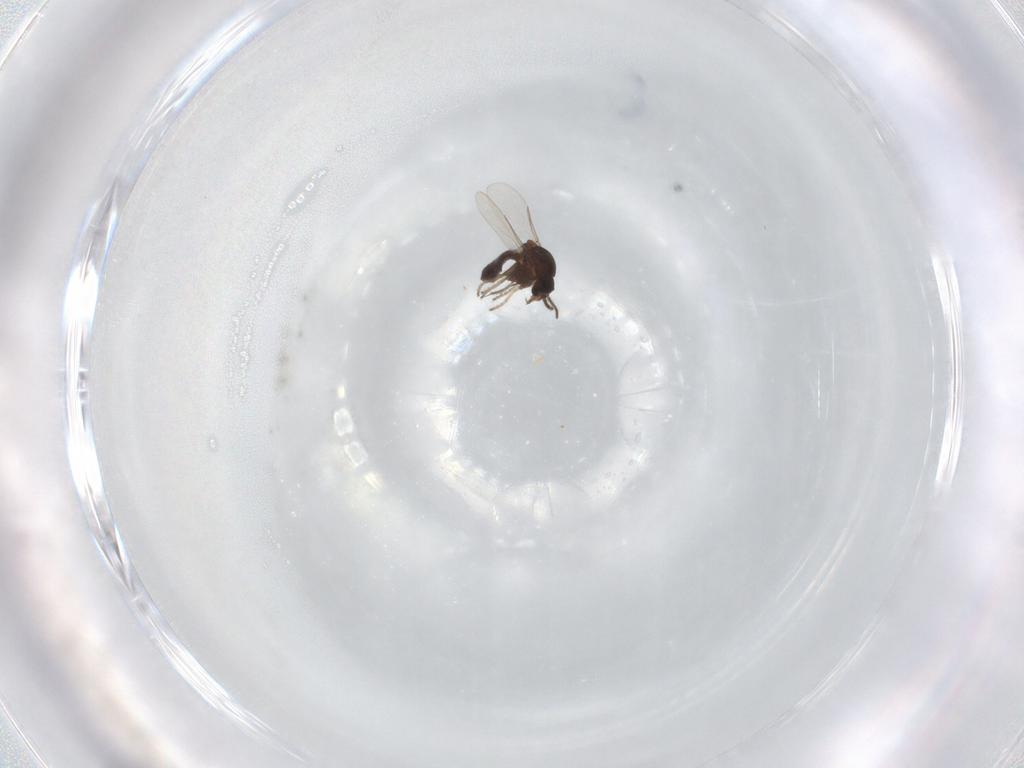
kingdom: Animalia
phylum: Arthropoda
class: Insecta
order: Diptera
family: Ceratopogonidae
